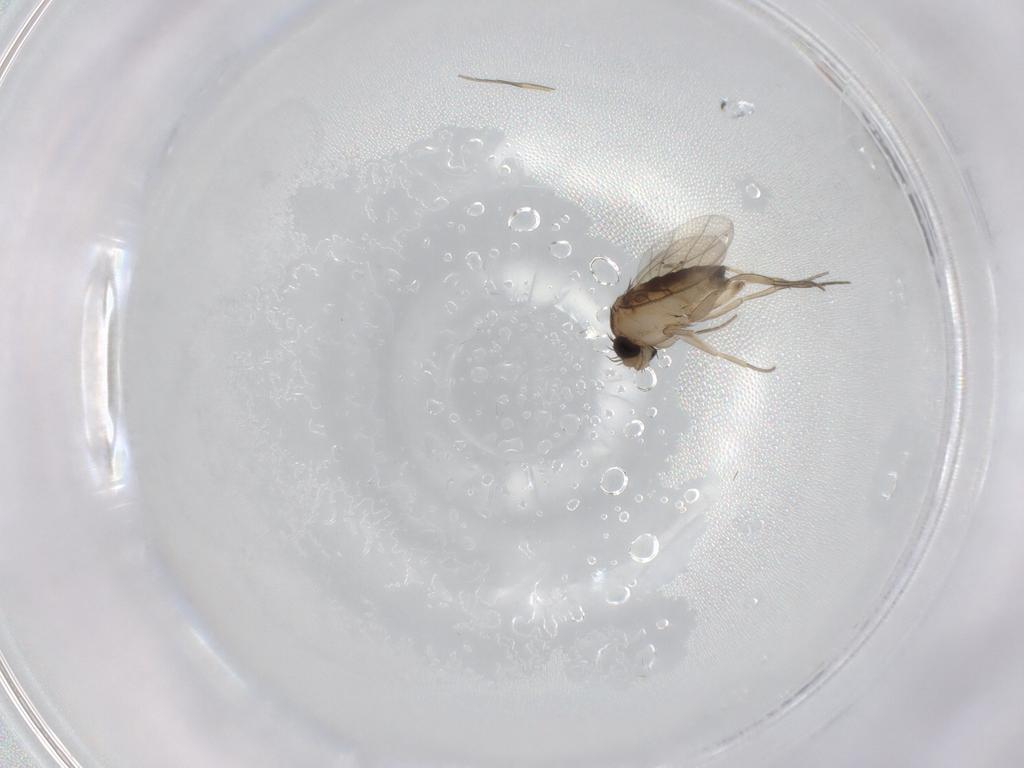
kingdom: Animalia
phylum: Arthropoda
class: Insecta
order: Diptera
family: Phoridae
